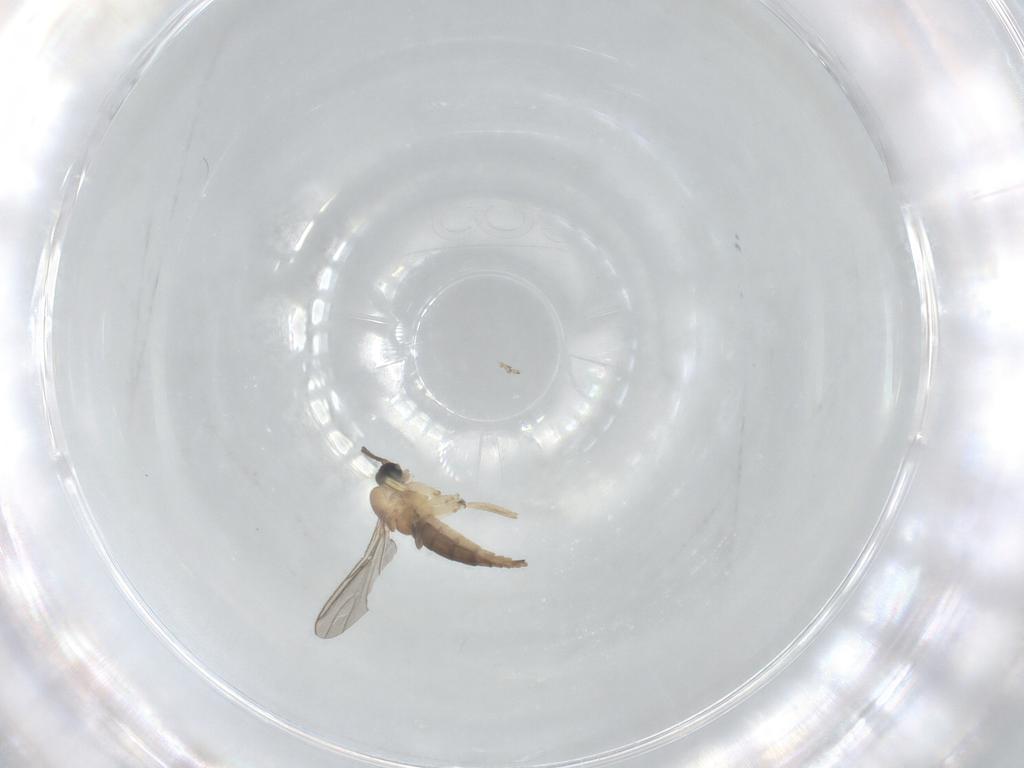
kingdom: Animalia
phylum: Arthropoda
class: Insecta
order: Diptera
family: Sciaridae
